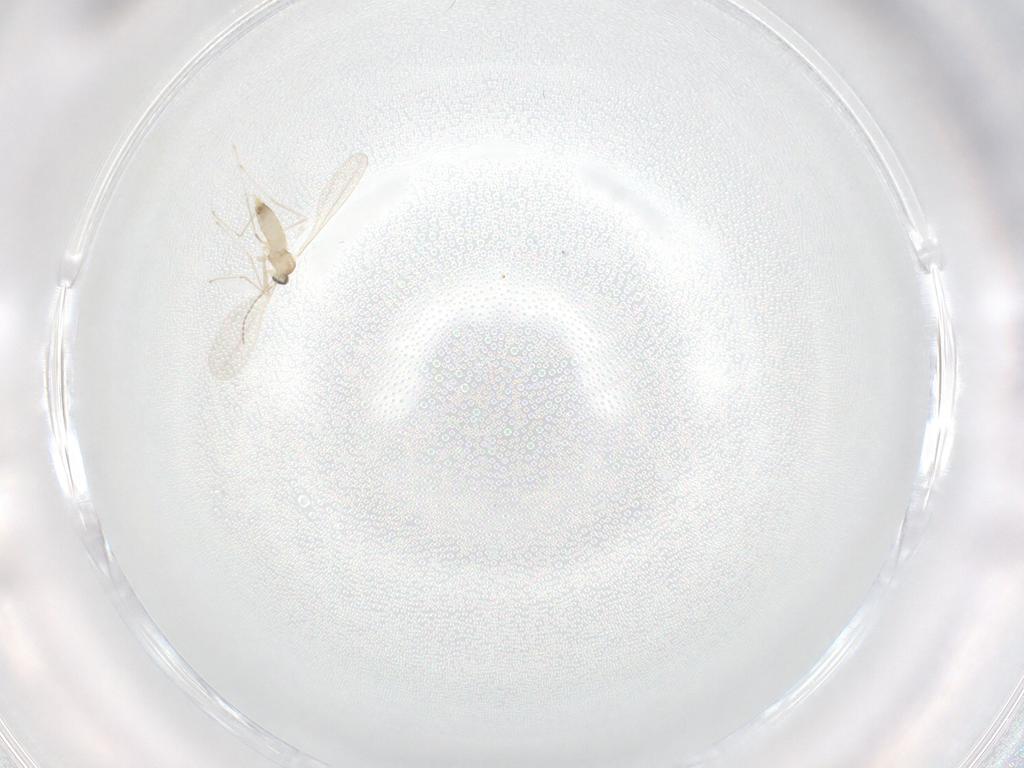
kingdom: Animalia
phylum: Arthropoda
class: Insecta
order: Diptera
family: Cecidomyiidae
